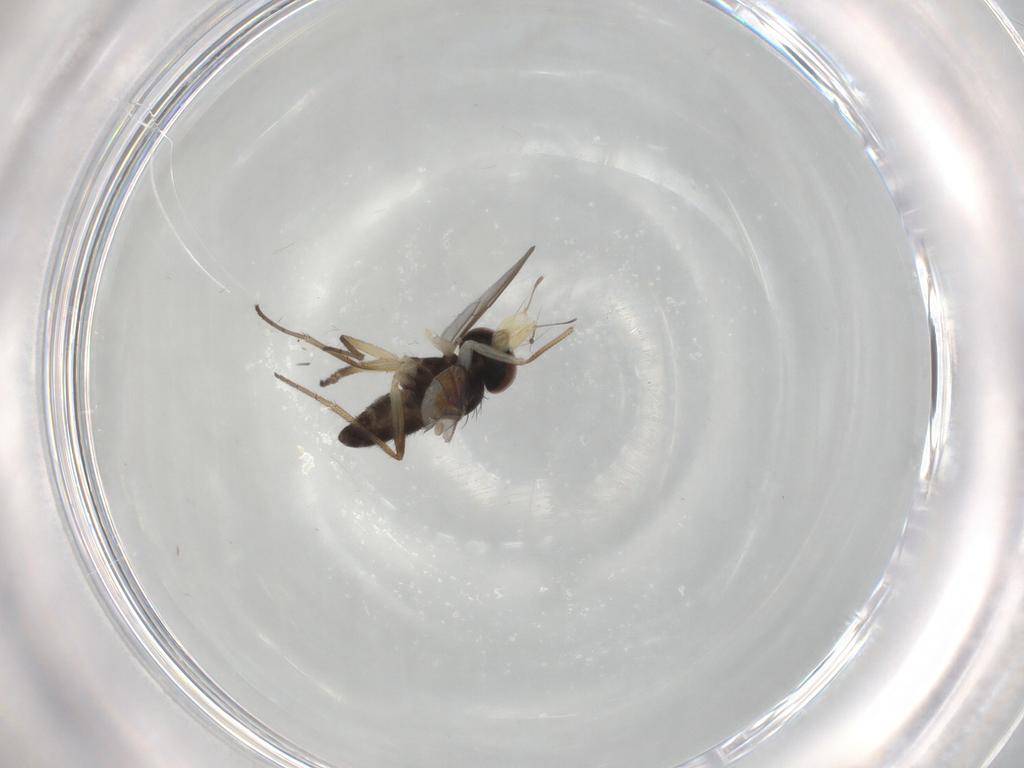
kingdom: Animalia
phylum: Arthropoda
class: Insecta
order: Diptera
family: Dolichopodidae
